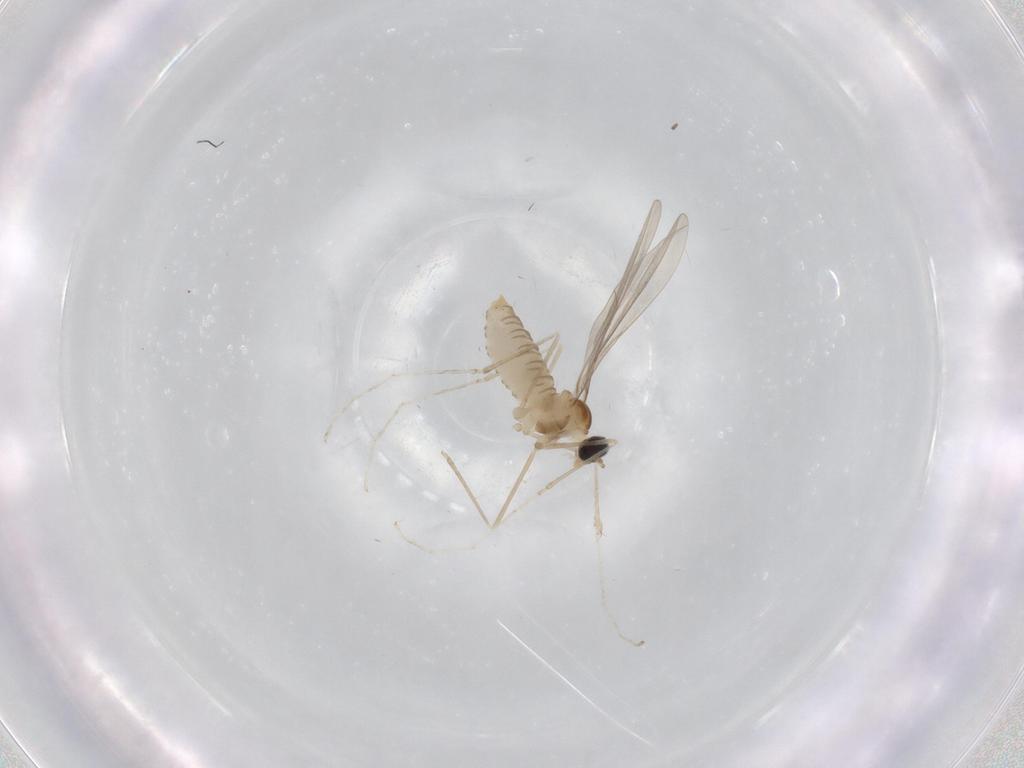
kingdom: Animalia
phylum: Arthropoda
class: Insecta
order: Diptera
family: Cecidomyiidae
